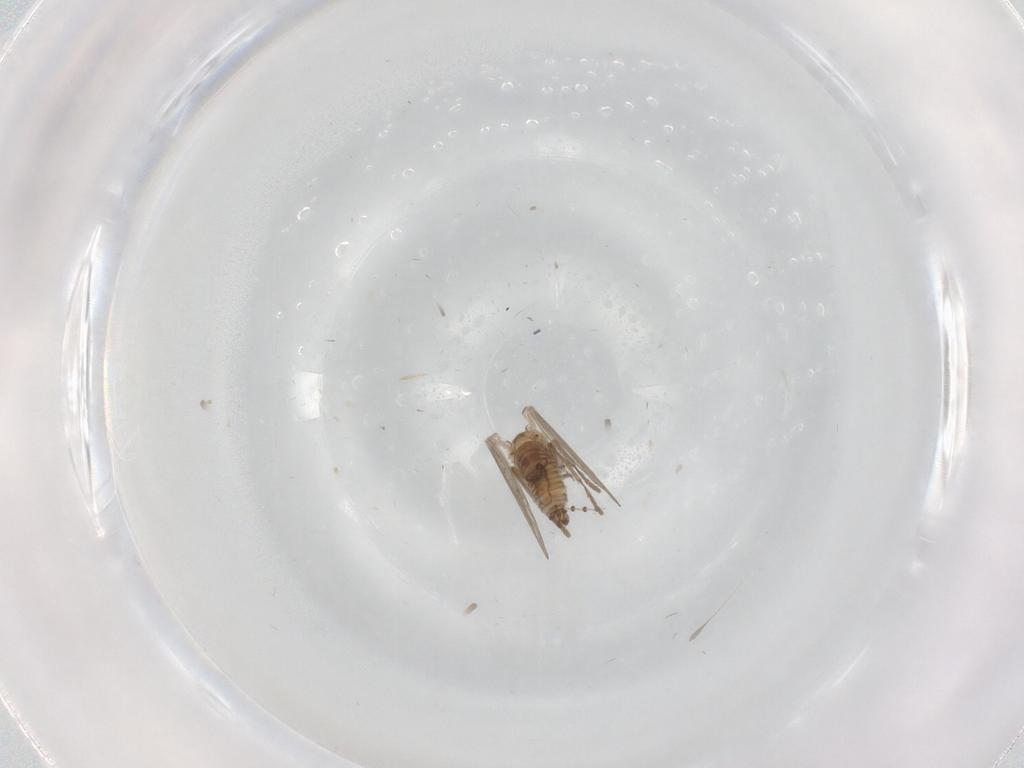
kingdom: Animalia
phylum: Arthropoda
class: Insecta
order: Diptera
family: Psychodidae
